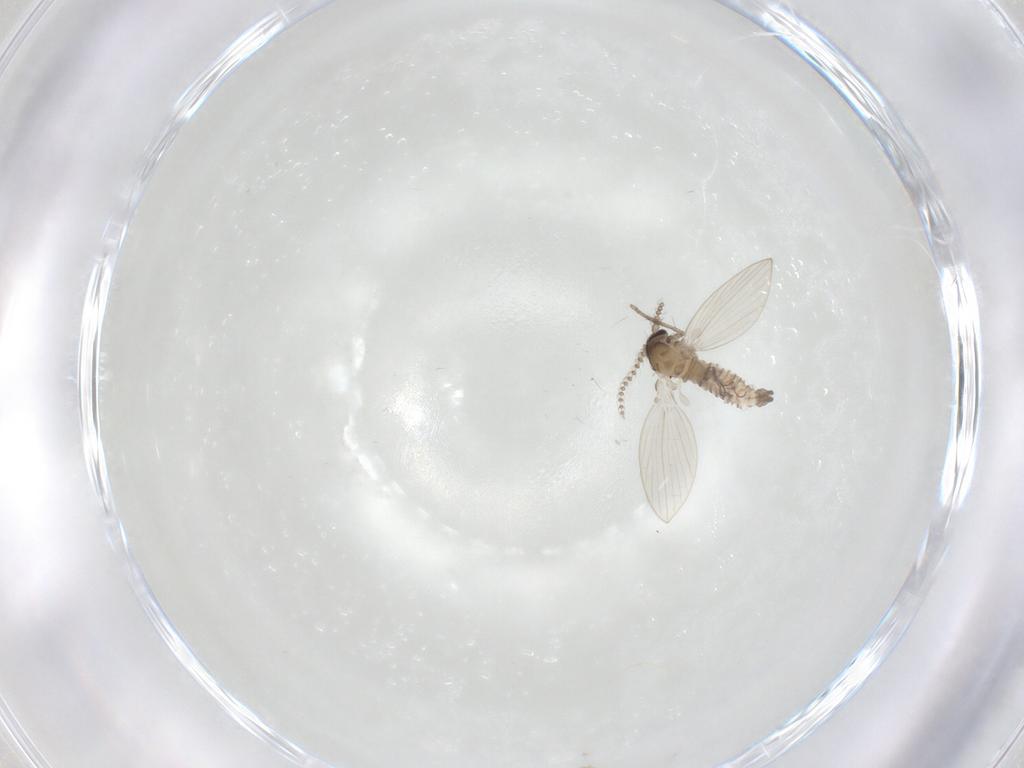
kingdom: Animalia
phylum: Arthropoda
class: Insecta
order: Diptera
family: Psychodidae
